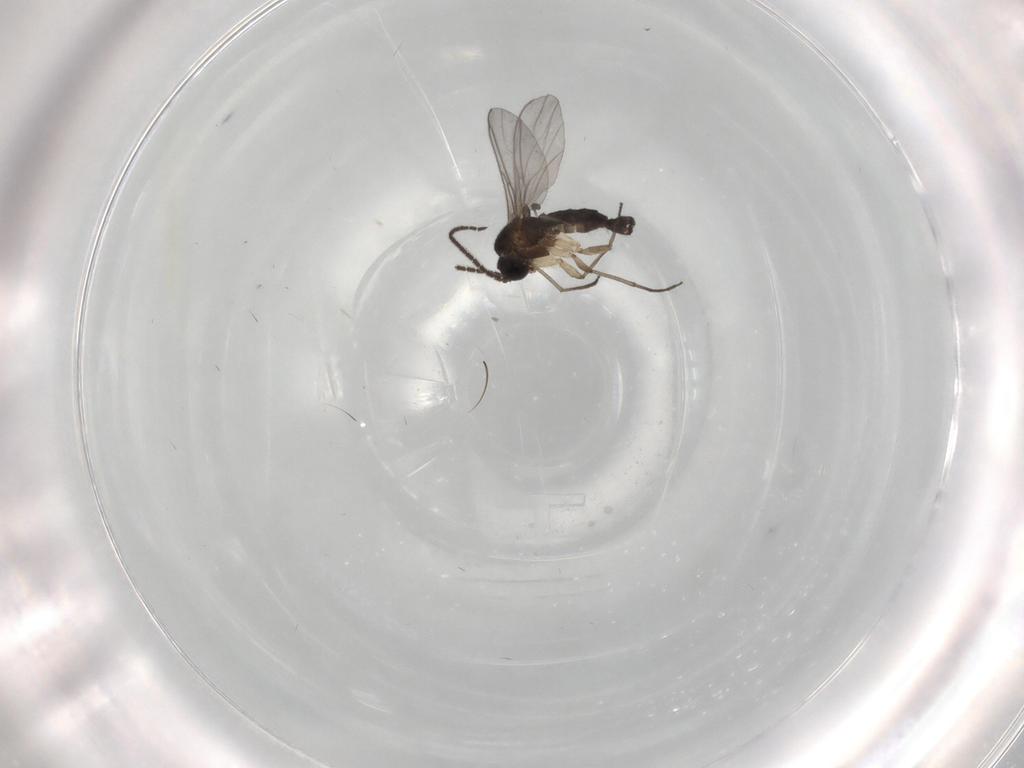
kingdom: Animalia
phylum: Arthropoda
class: Insecta
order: Diptera
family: Sciaridae
